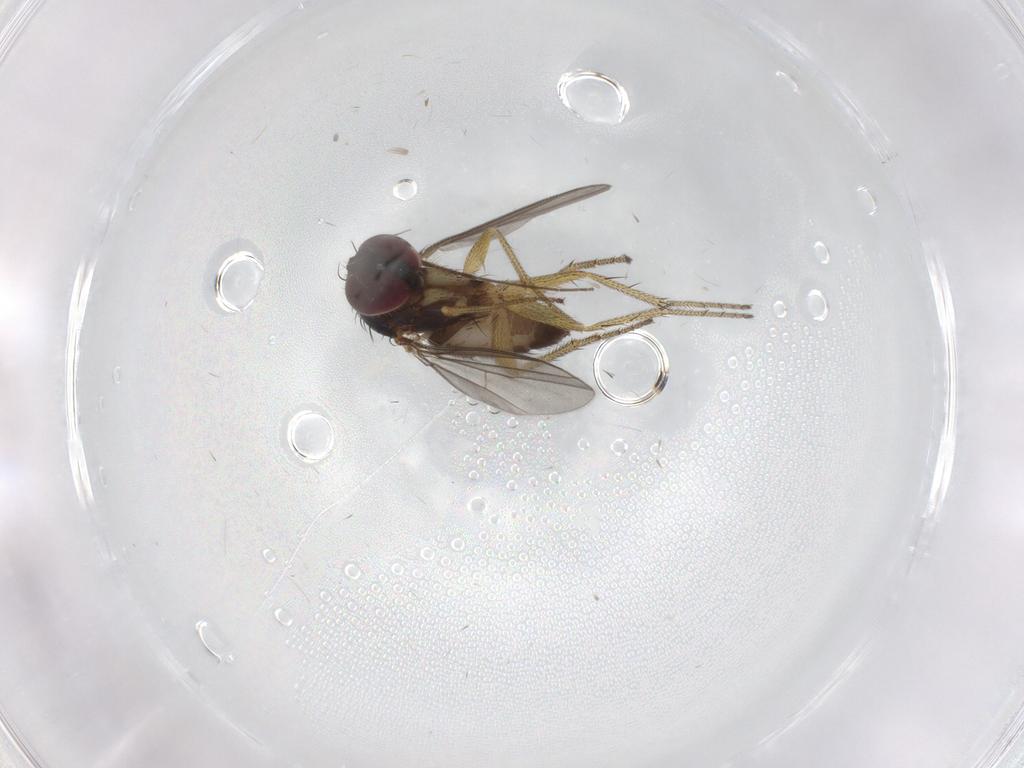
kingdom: Animalia
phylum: Arthropoda
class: Insecta
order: Diptera
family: Chironomidae
